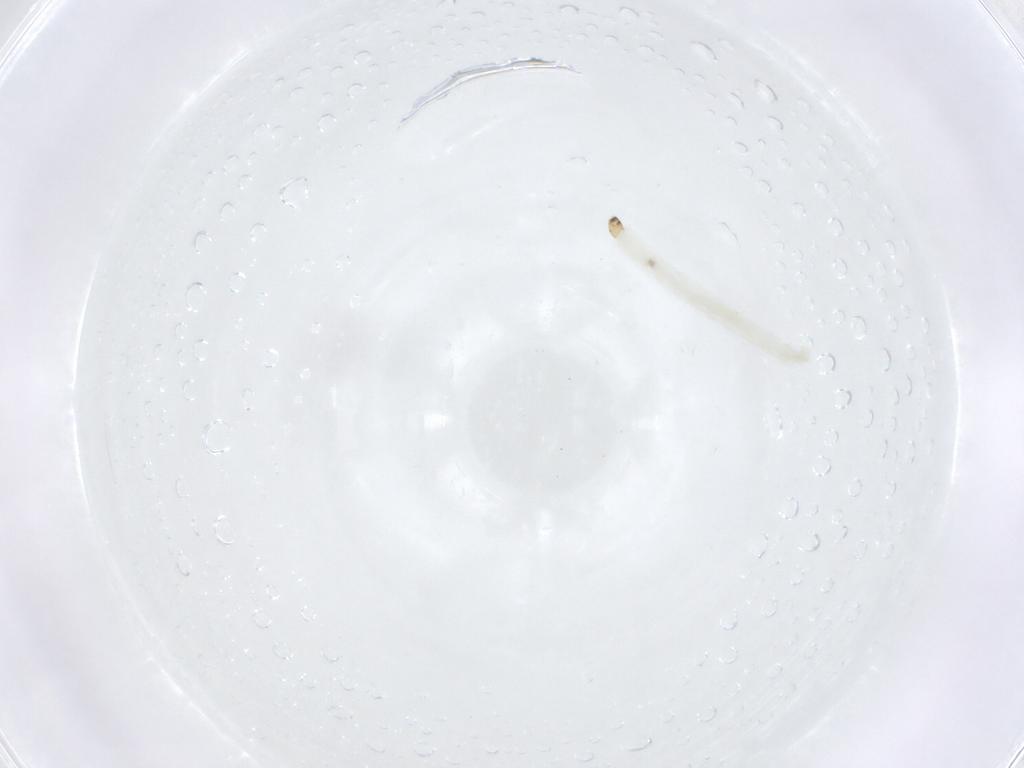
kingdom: Animalia
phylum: Arthropoda
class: Insecta
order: Diptera
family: Chironomidae
